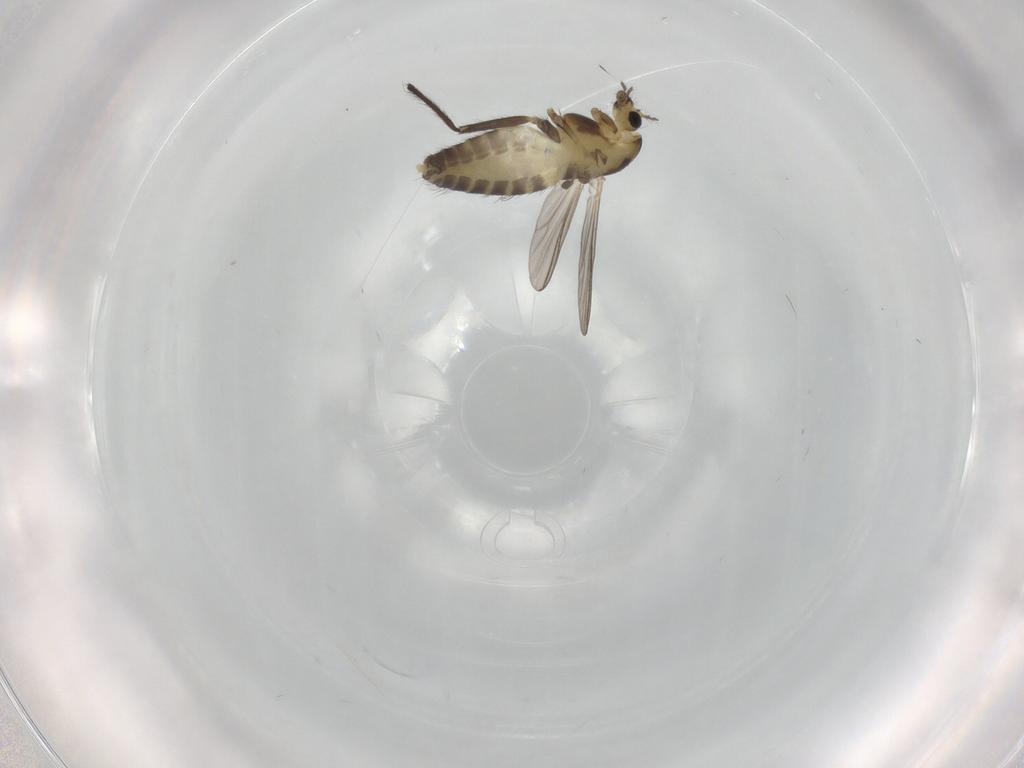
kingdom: Animalia
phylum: Arthropoda
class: Insecta
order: Diptera
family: Chironomidae
